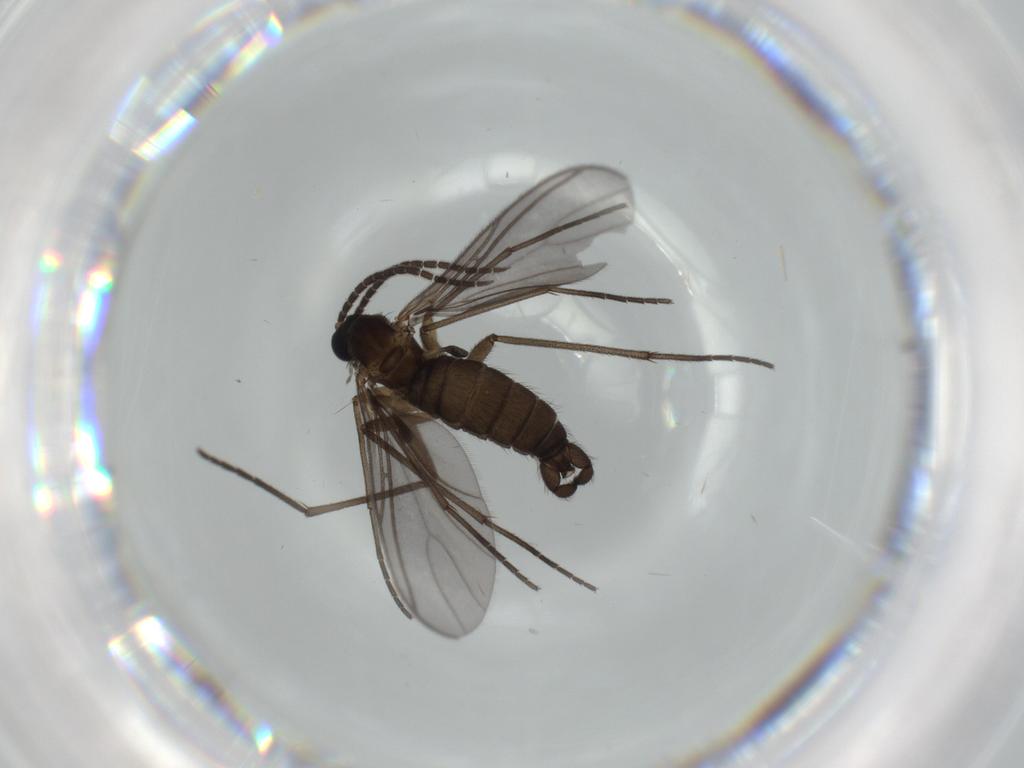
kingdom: Animalia
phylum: Arthropoda
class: Insecta
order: Diptera
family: Sciaridae
